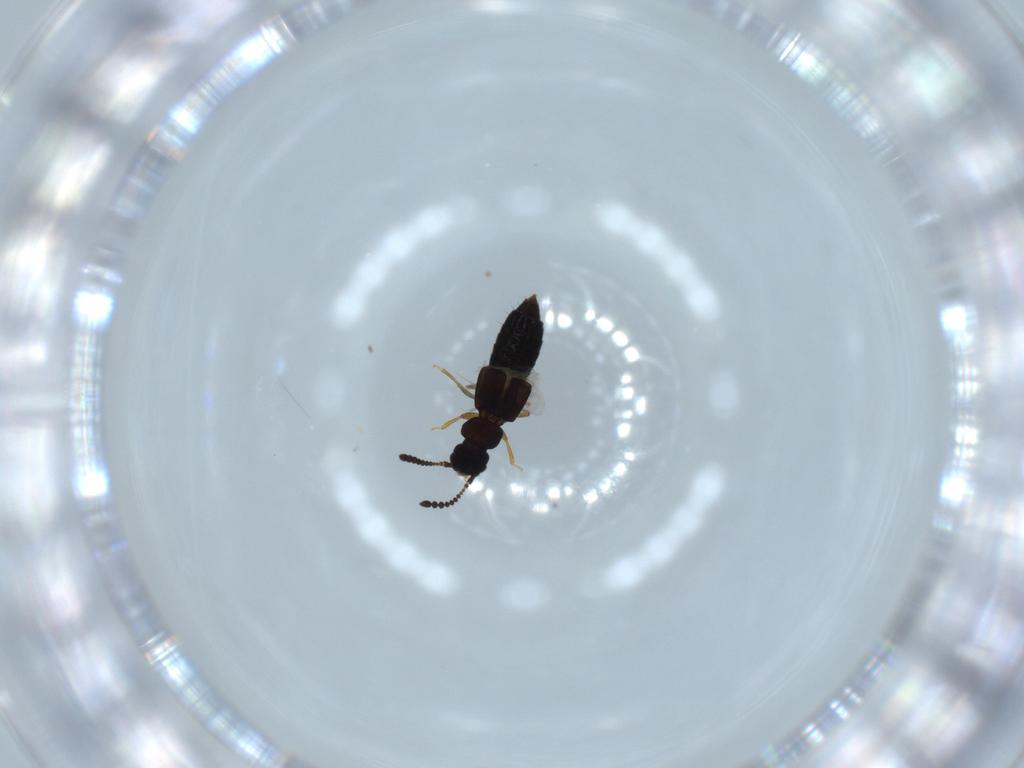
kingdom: Animalia
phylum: Arthropoda
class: Insecta
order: Coleoptera
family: Staphylinidae
